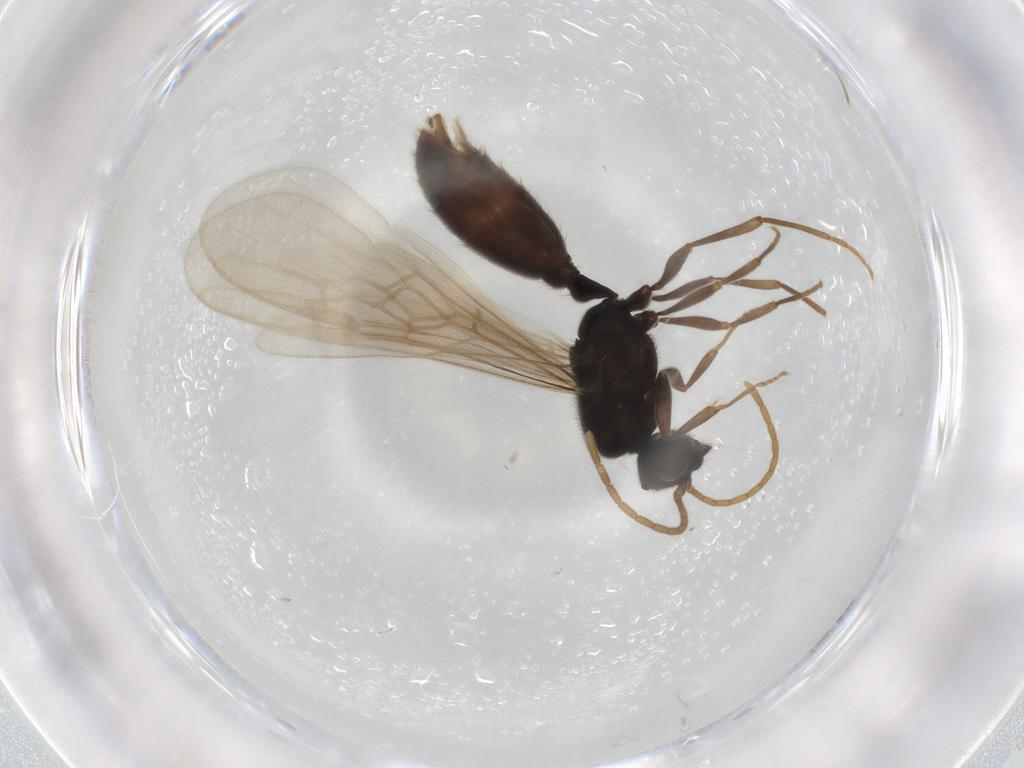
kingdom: Animalia
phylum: Arthropoda
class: Insecta
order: Hymenoptera
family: Formicidae
